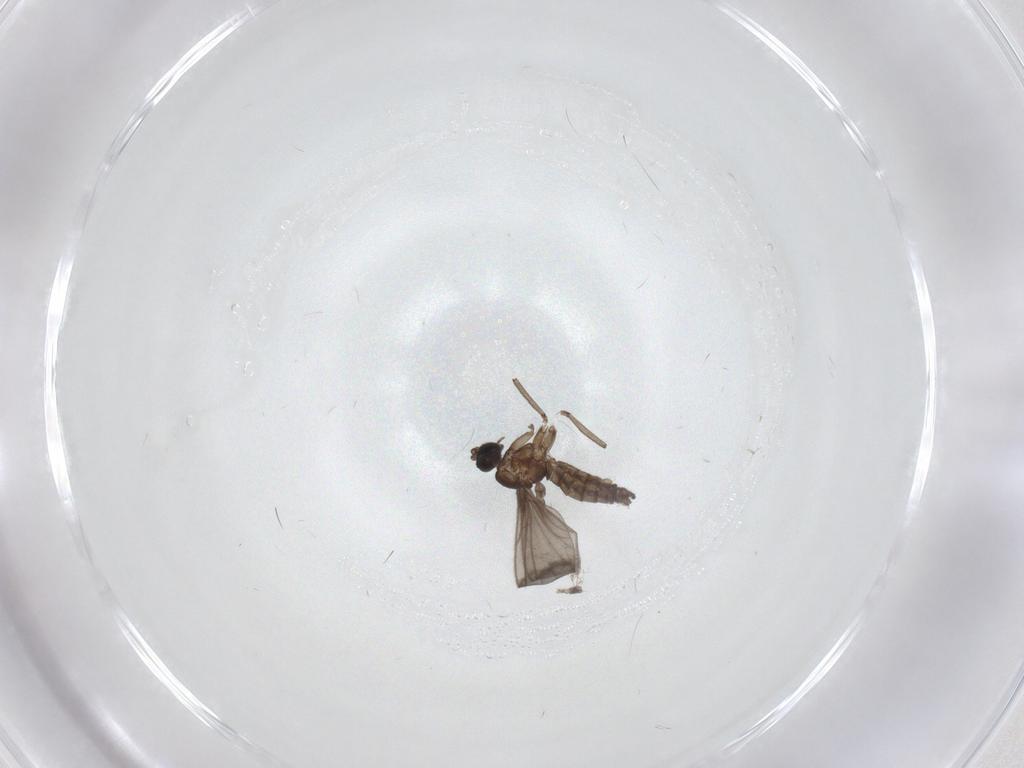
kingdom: Animalia
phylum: Arthropoda
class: Insecta
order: Diptera
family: Tabanidae
